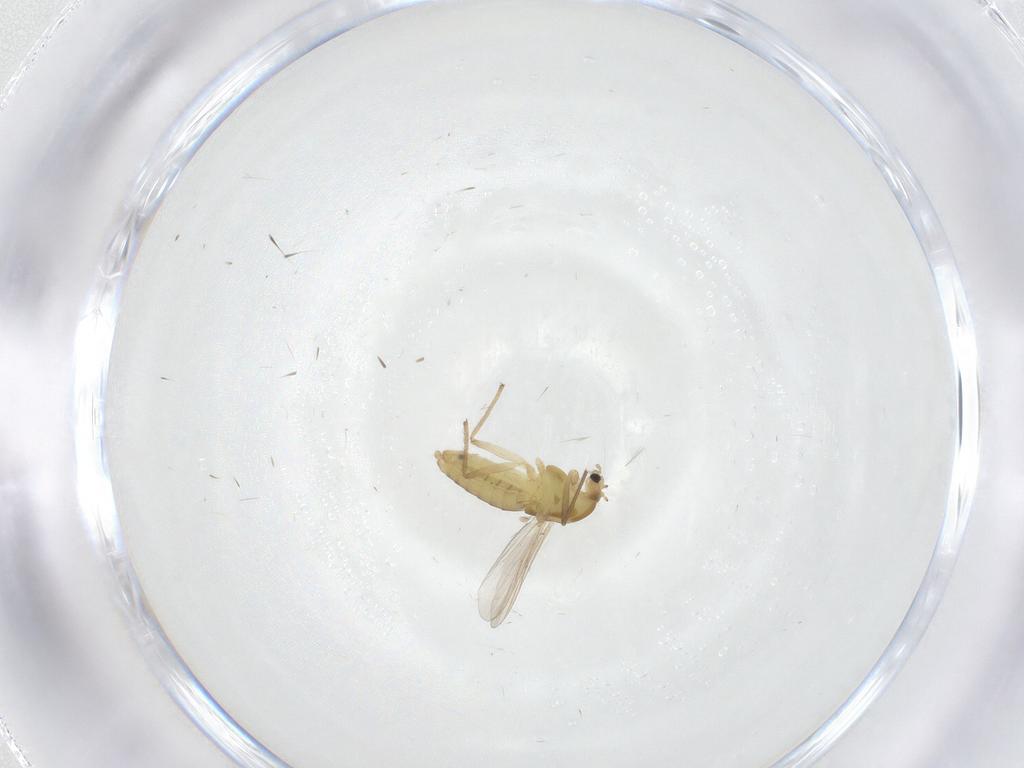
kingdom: Animalia
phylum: Arthropoda
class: Insecta
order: Diptera
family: Chironomidae
